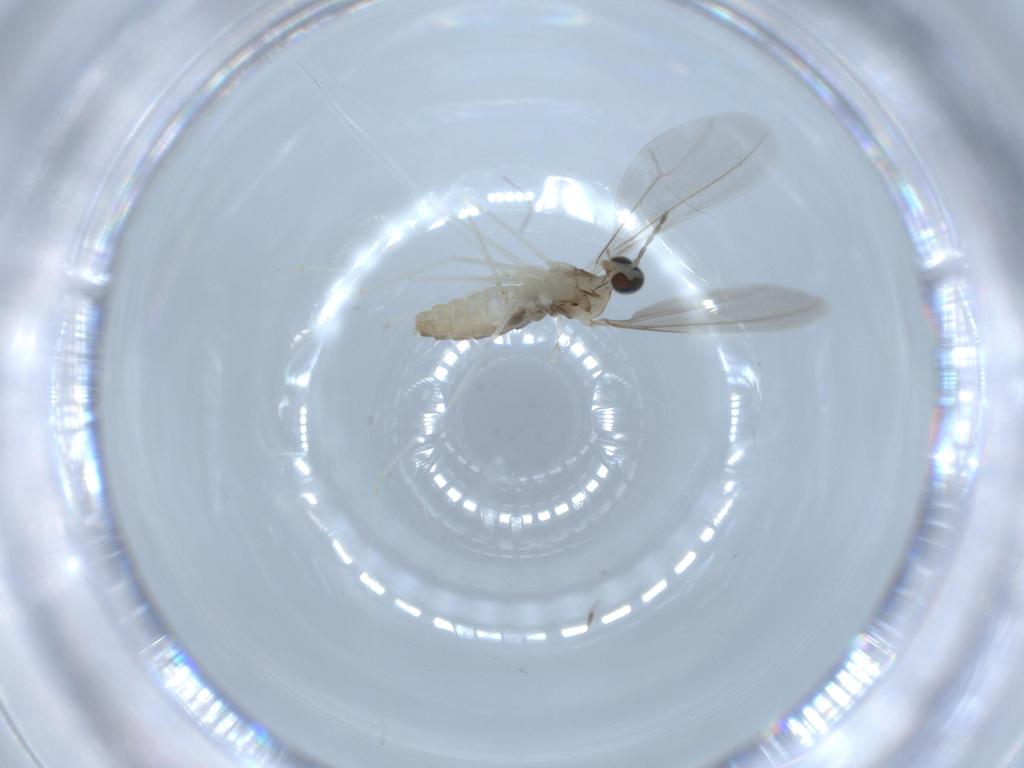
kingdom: Animalia
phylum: Arthropoda
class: Insecta
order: Diptera
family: Cecidomyiidae
